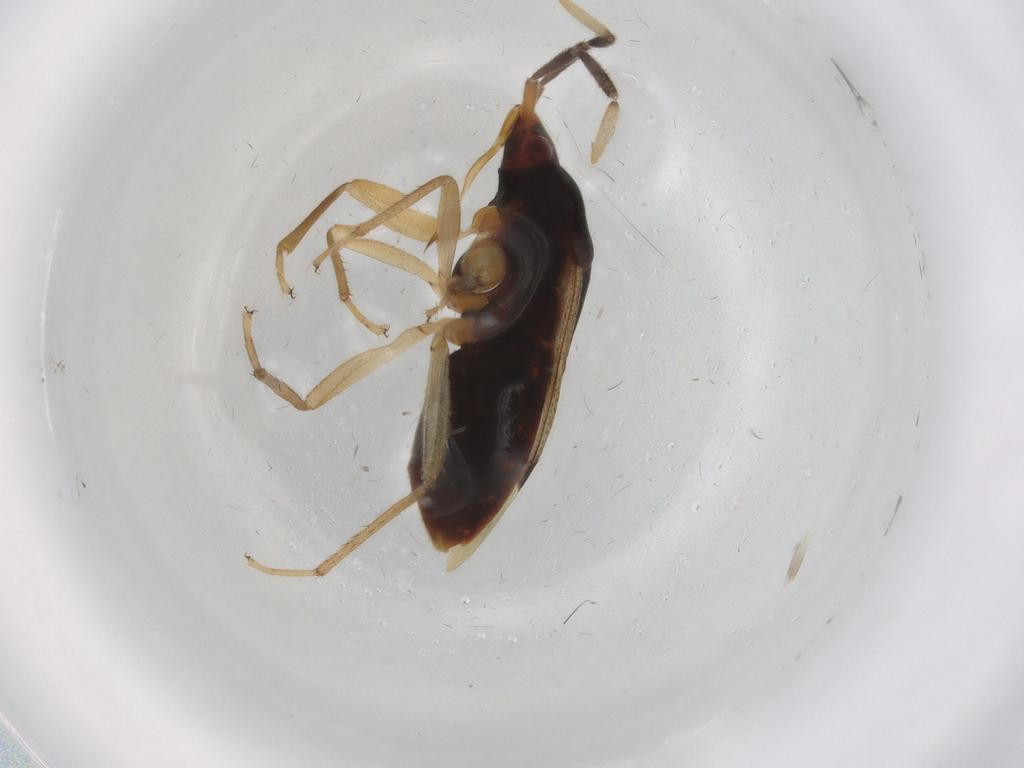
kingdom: Animalia
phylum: Arthropoda
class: Insecta
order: Hemiptera
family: Rhyparochromidae
